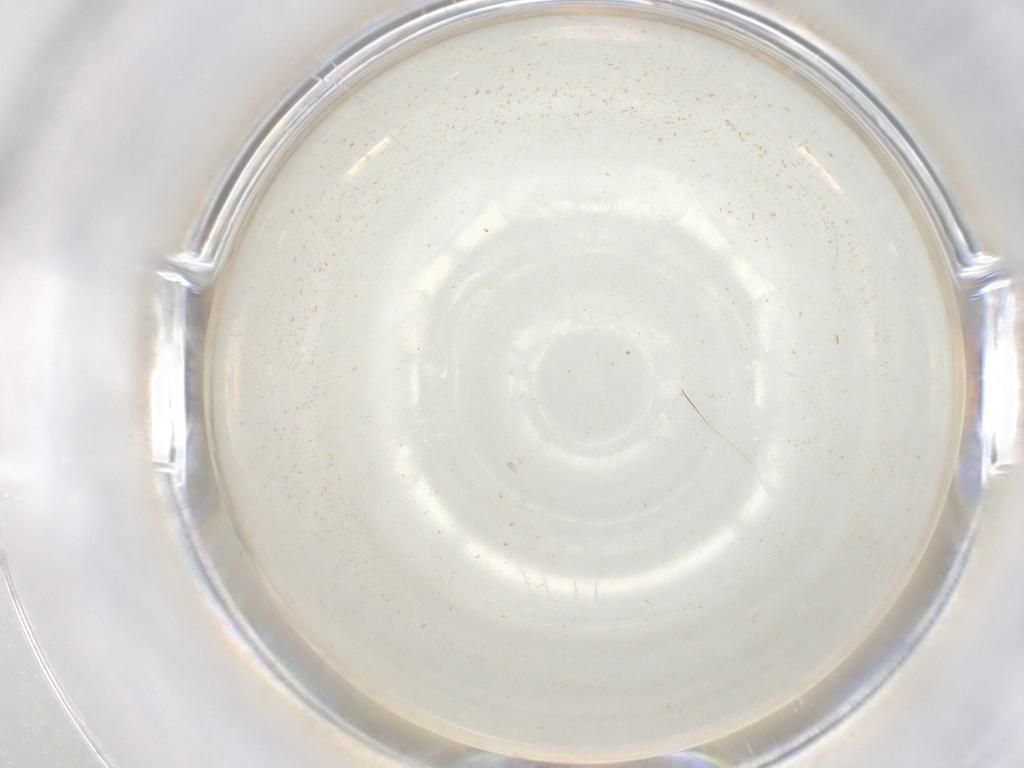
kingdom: Animalia
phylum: Arthropoda
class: Insecta
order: Hemiptera
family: Miridae
